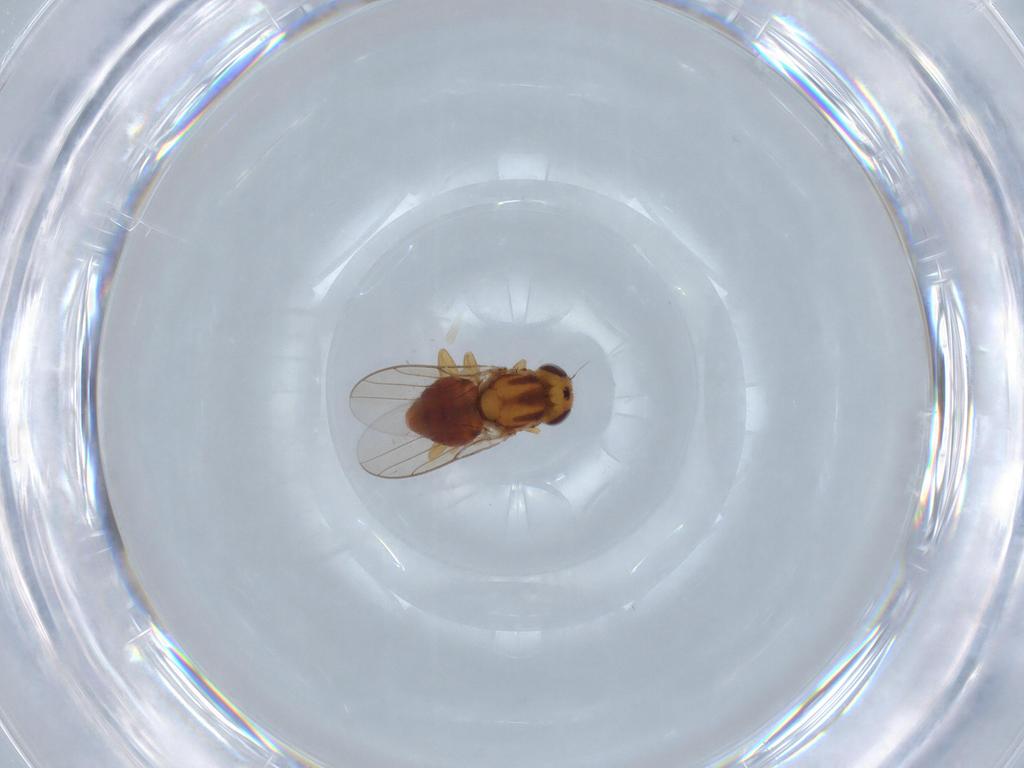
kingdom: Animalia
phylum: Arthropoda
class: Insecta
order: Diptera
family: Chloropidae
